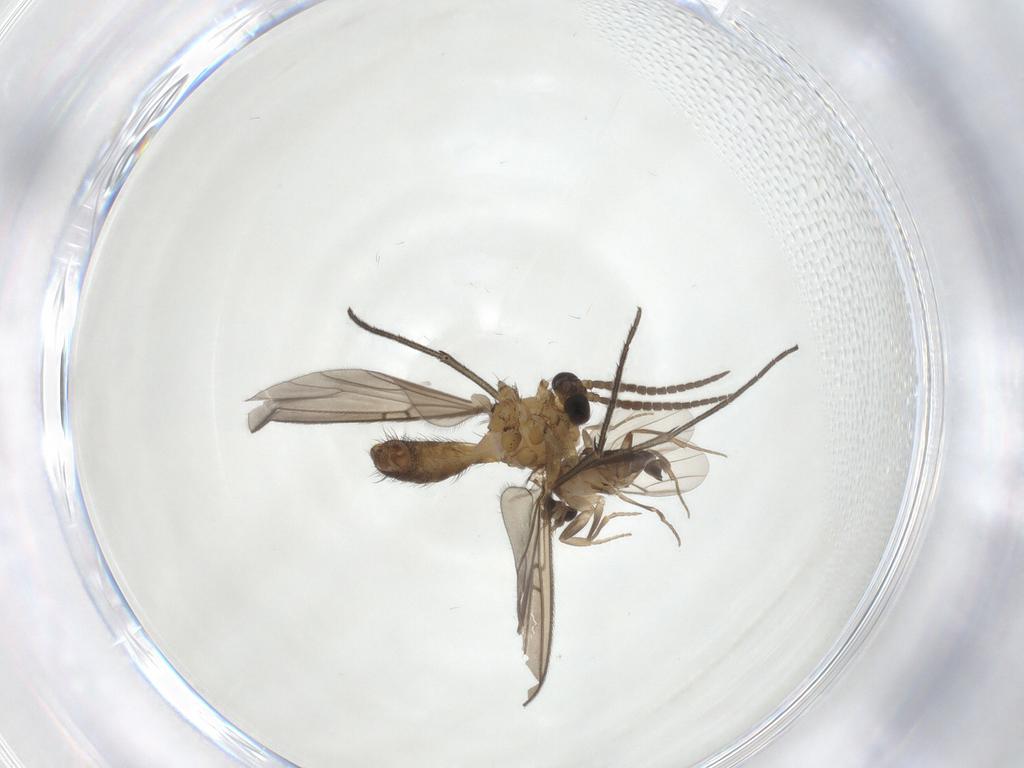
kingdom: Animalia
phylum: Arthropoda
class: Insecta
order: Diptera
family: Mycetophilidae
